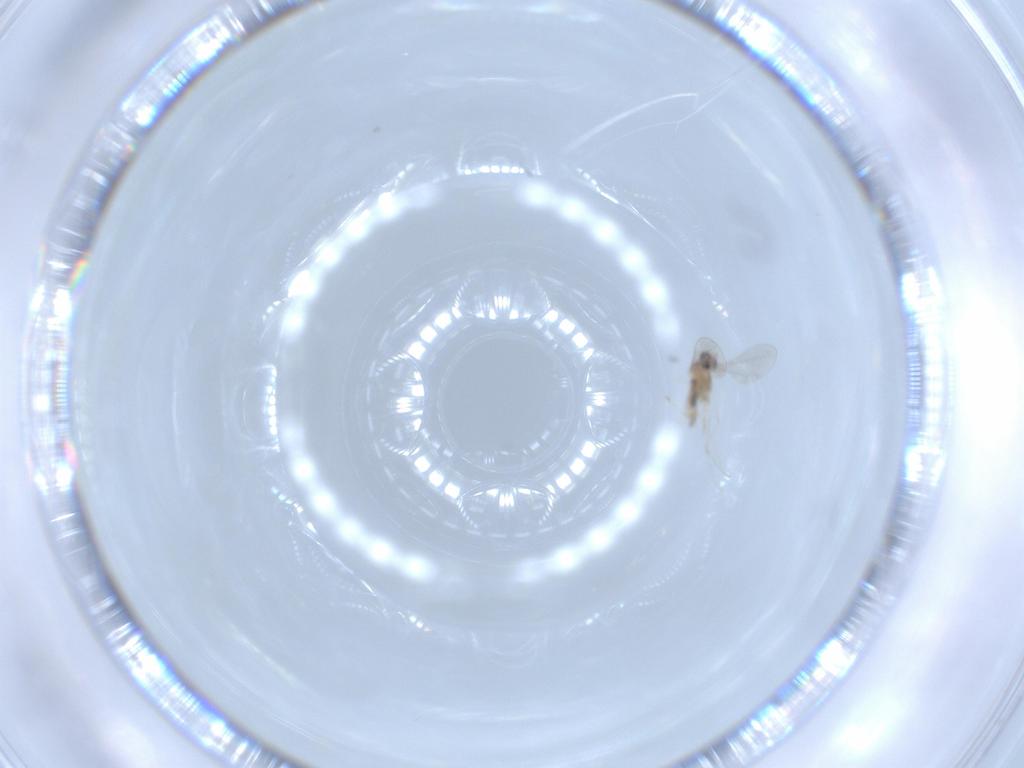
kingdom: Animalia
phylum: Arthropoda
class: Insecta
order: Diptera
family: Cecidomyiidae
